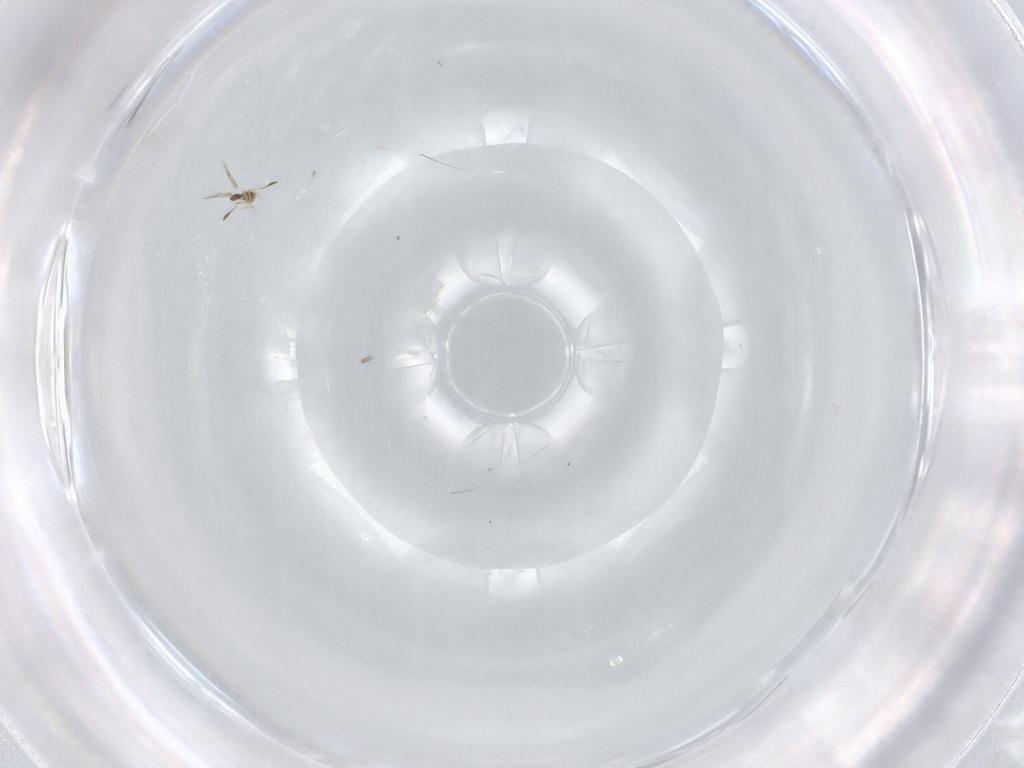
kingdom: Animalia
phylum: Arthropoda
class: Insecta
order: Hymenoptera
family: Mymarommatidae
